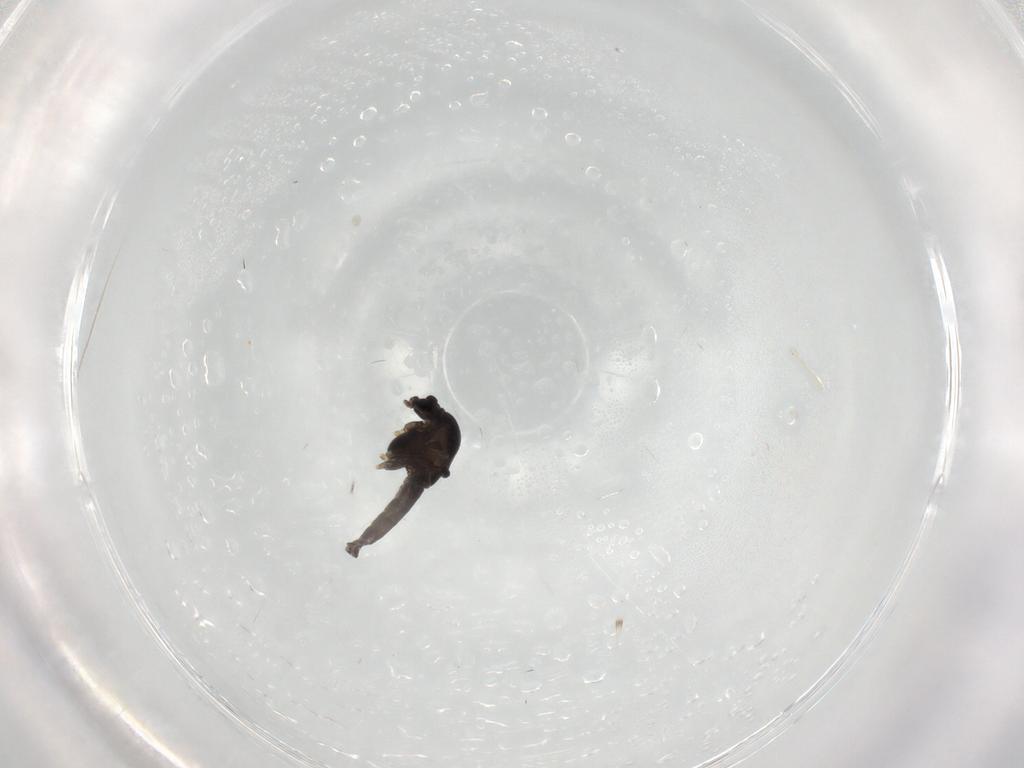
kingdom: Animalia
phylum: Arthropoda
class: Insecta
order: Diptera
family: Chironomidae
